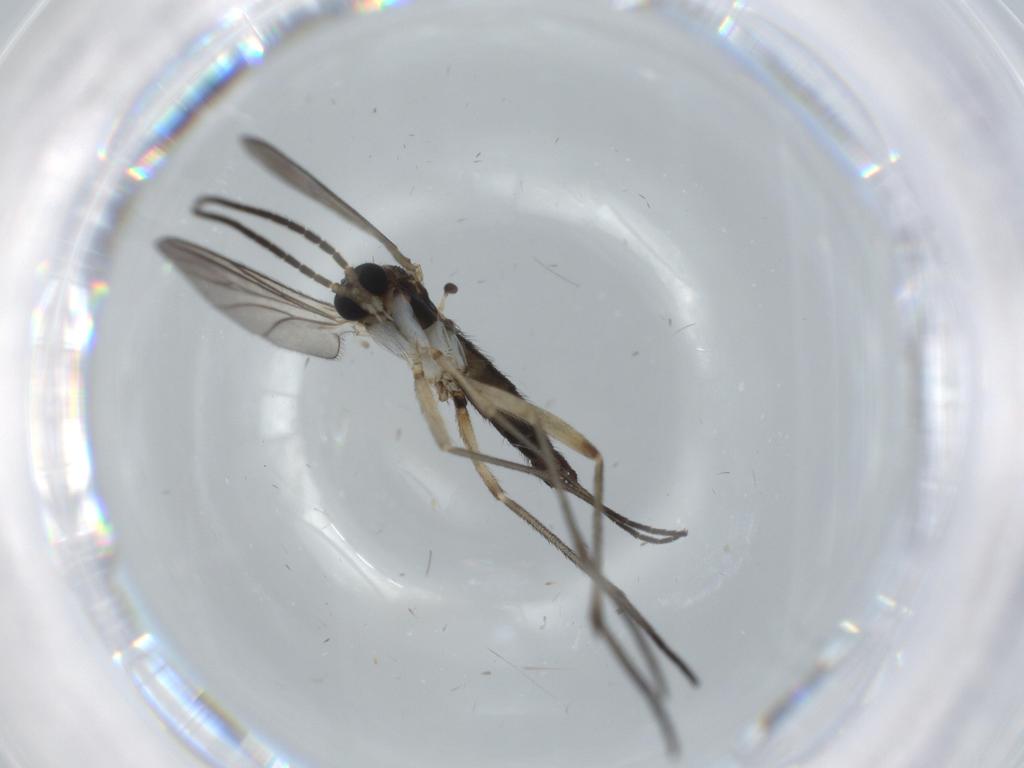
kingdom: Animalia
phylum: Arthropoda
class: Insecta
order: Diptera
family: Sciaridae
